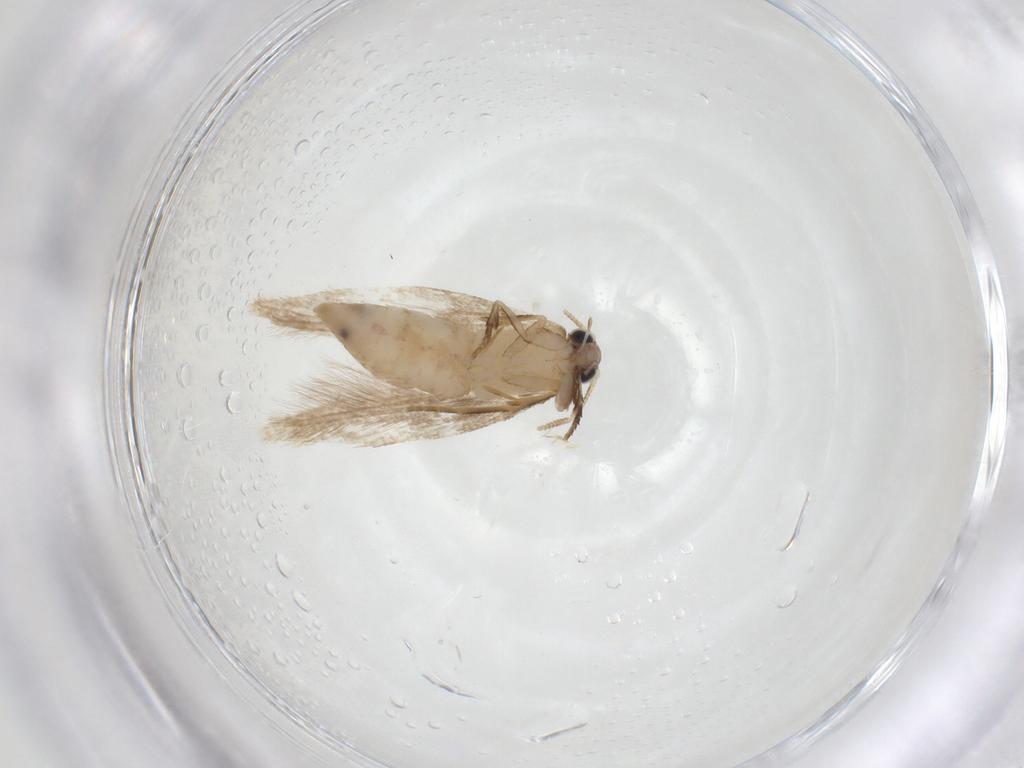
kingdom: Animalia
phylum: Arthropoda
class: Insecta
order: Lepidoptera
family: Tineidae
